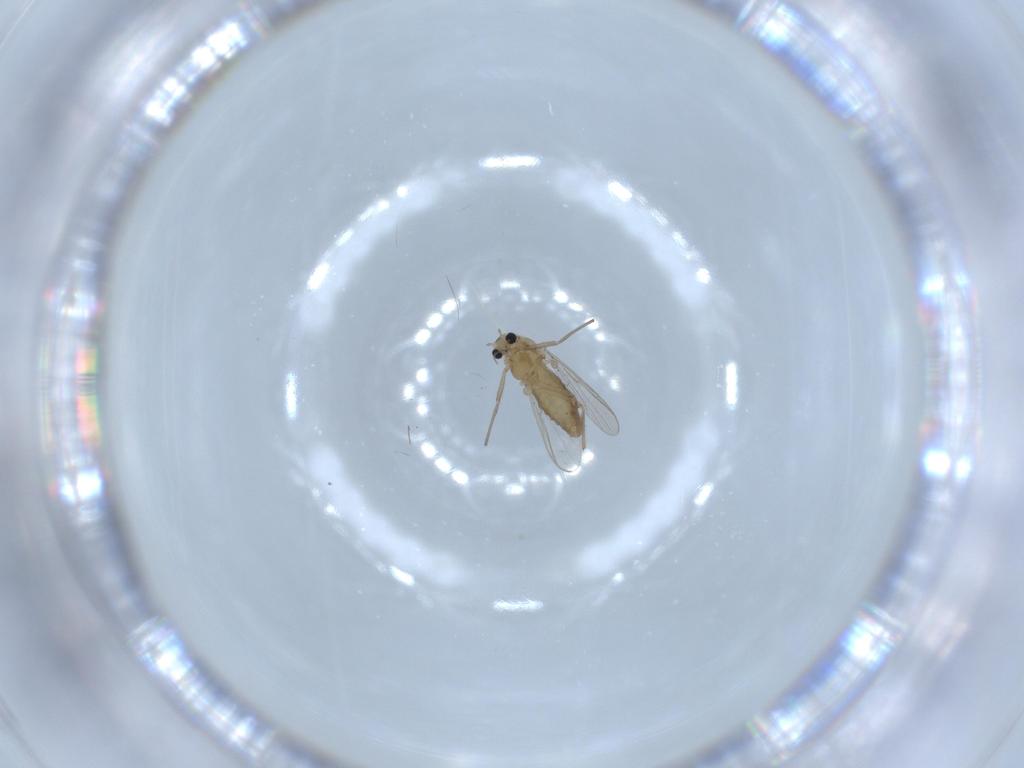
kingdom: Animalia
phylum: Arthropoda
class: Insecta
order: Diptera
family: Chironomidae
